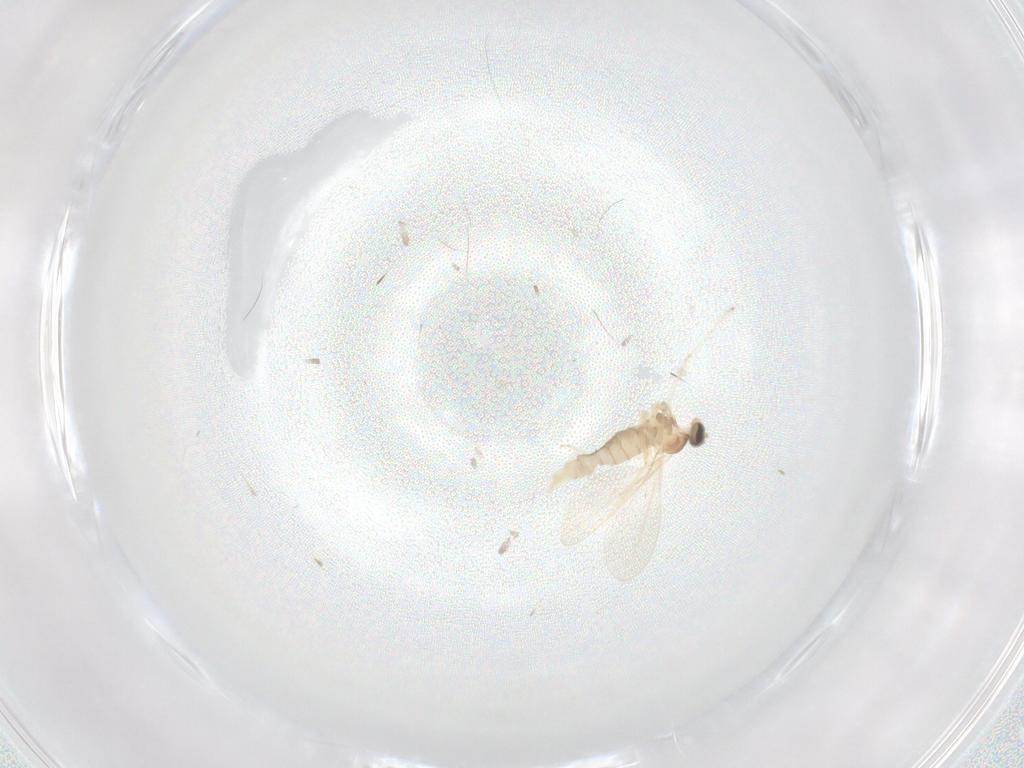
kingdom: Animalia
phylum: Arthropoda
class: Insecta
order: Diptera
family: Cecidomyiidae
